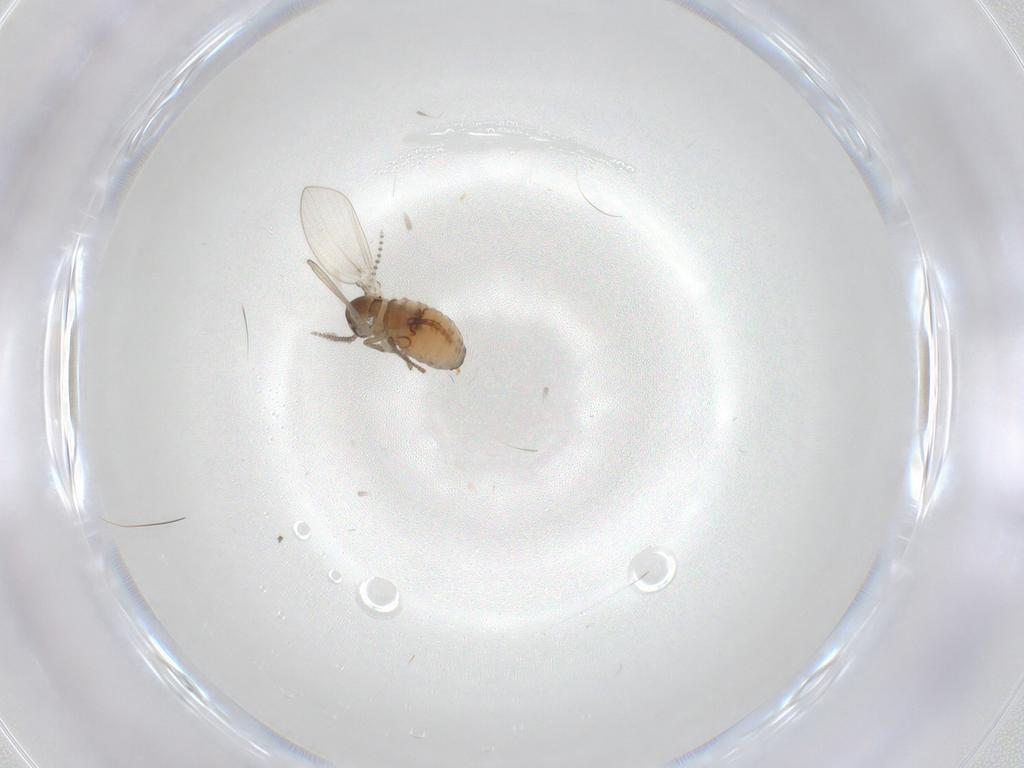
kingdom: Animalia
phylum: Arthropoda
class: Insecta
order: Diptera
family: Psychodidae
